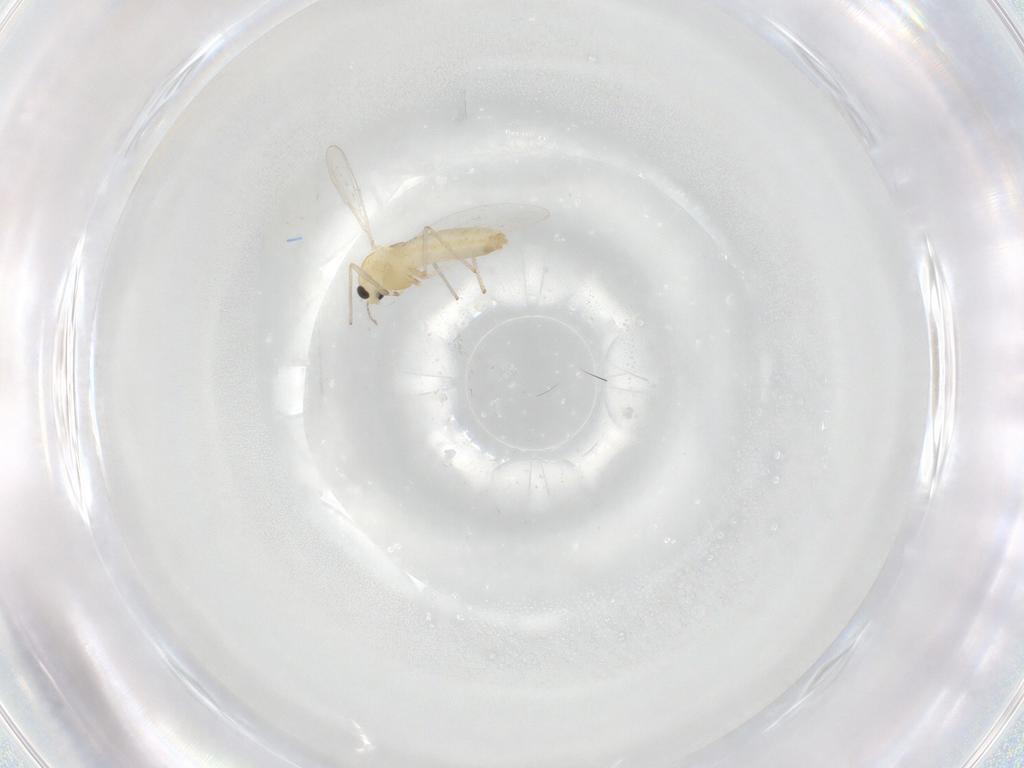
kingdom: Animalia
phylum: Arthropoda
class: Insecta
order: Diptera
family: Chironomidae
